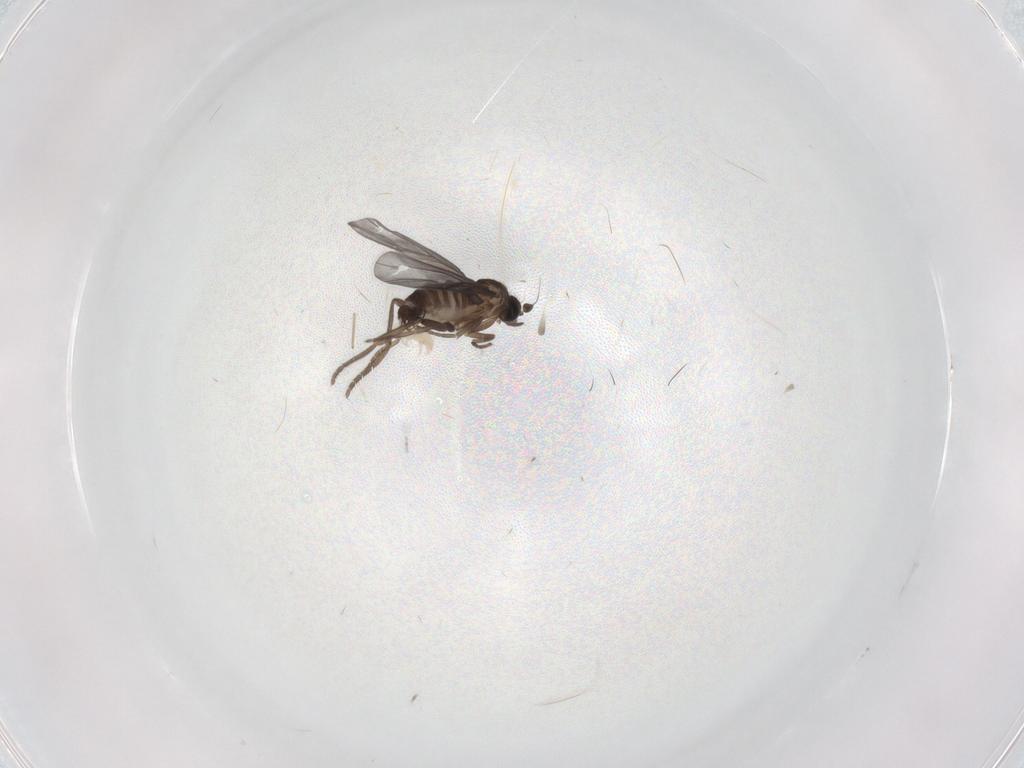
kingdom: Animalia
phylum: Arthropoda
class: Insecta
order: Diptera
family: Phoridae
